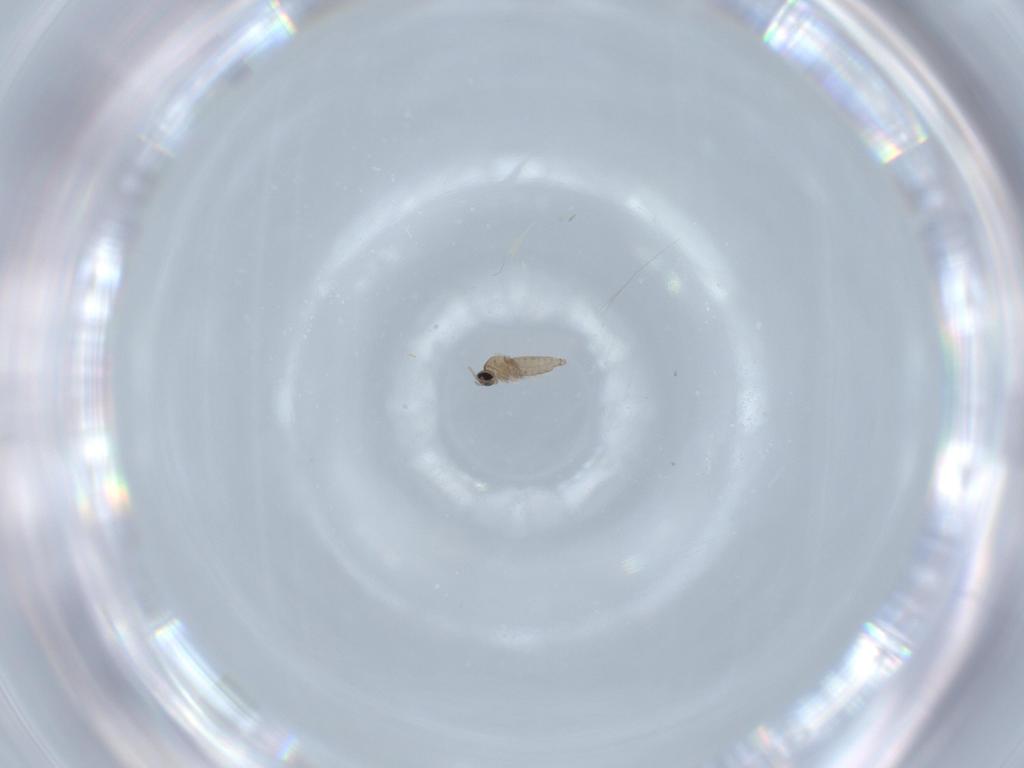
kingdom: Animalia
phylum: Arthropoda
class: Insecta
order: Diptera
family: Cecidomyiidae
